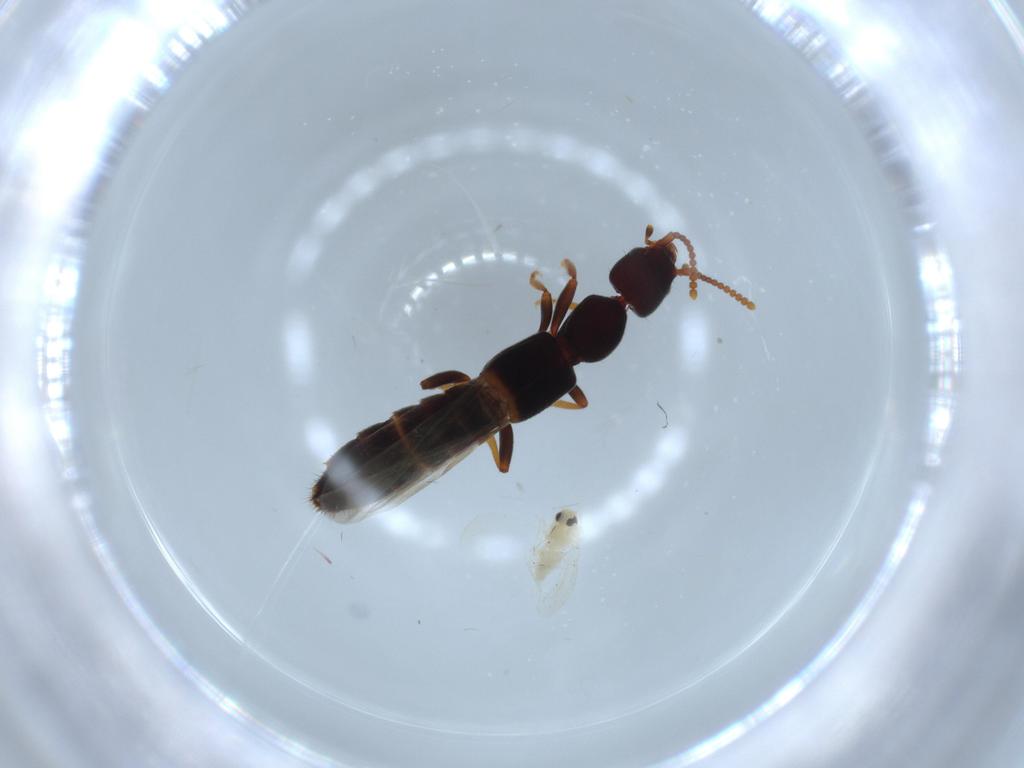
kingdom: Animalia
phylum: Arthropoda
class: Insecta
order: Hemiptera
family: Aleyrodidae
